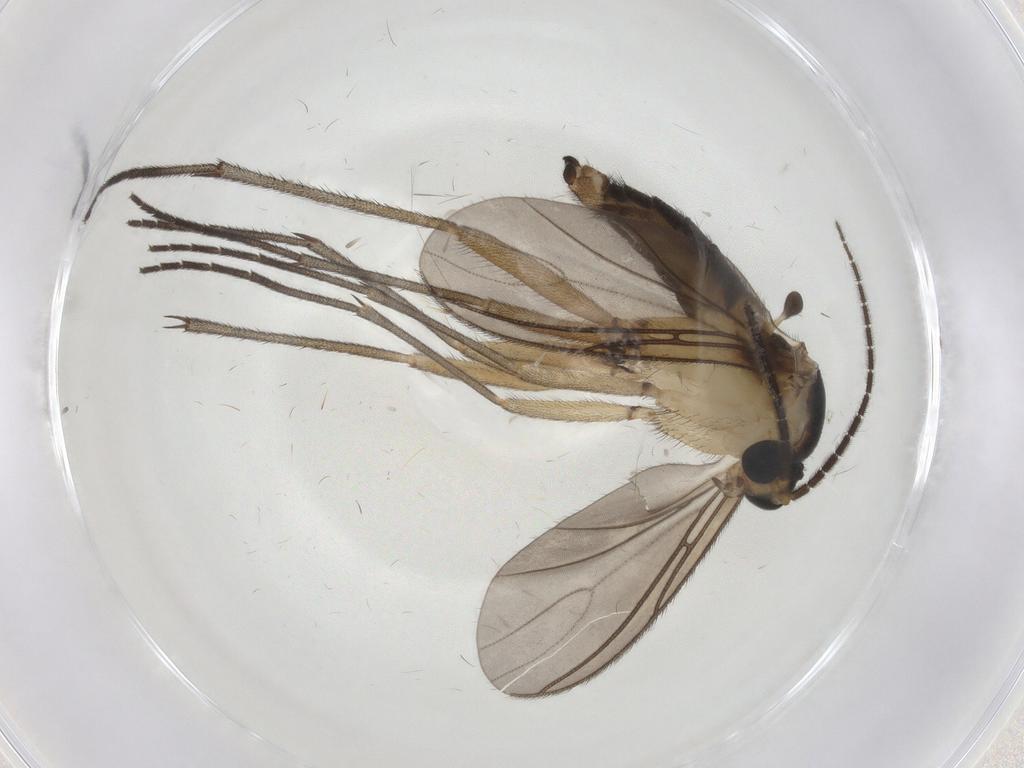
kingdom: Animalia
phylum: Arthropoda
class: Insecta
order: Diptera
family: Sciaridae
